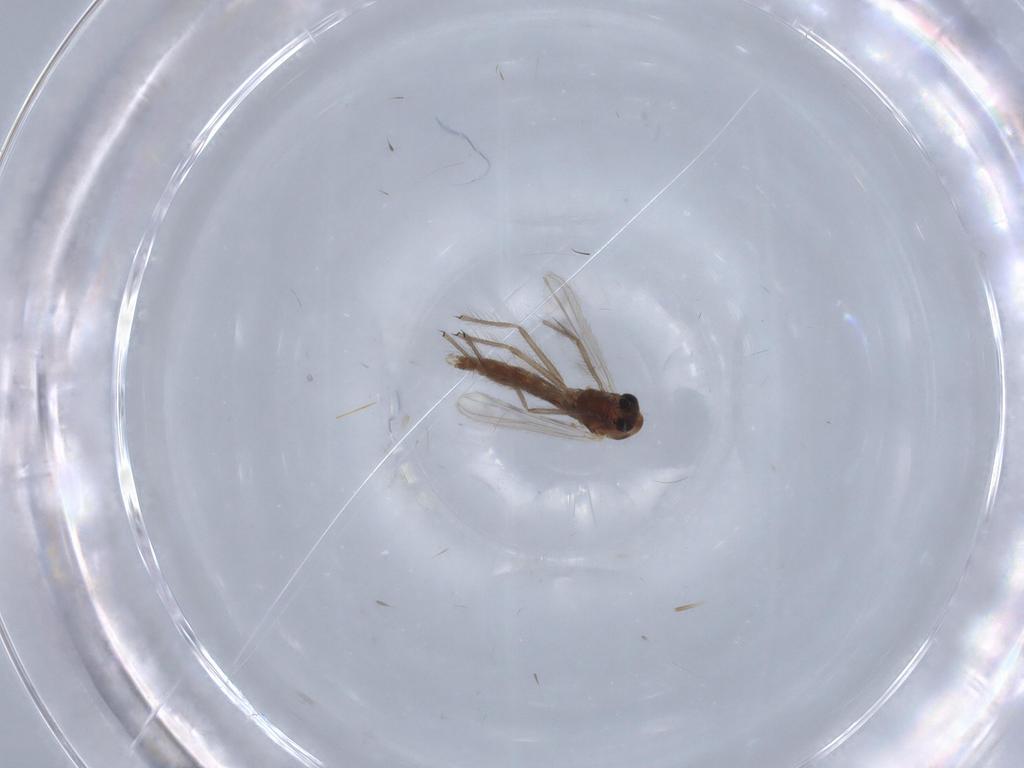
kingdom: Animalia
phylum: Arthropoda
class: Insecta
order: Diptera
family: Chironomidae
